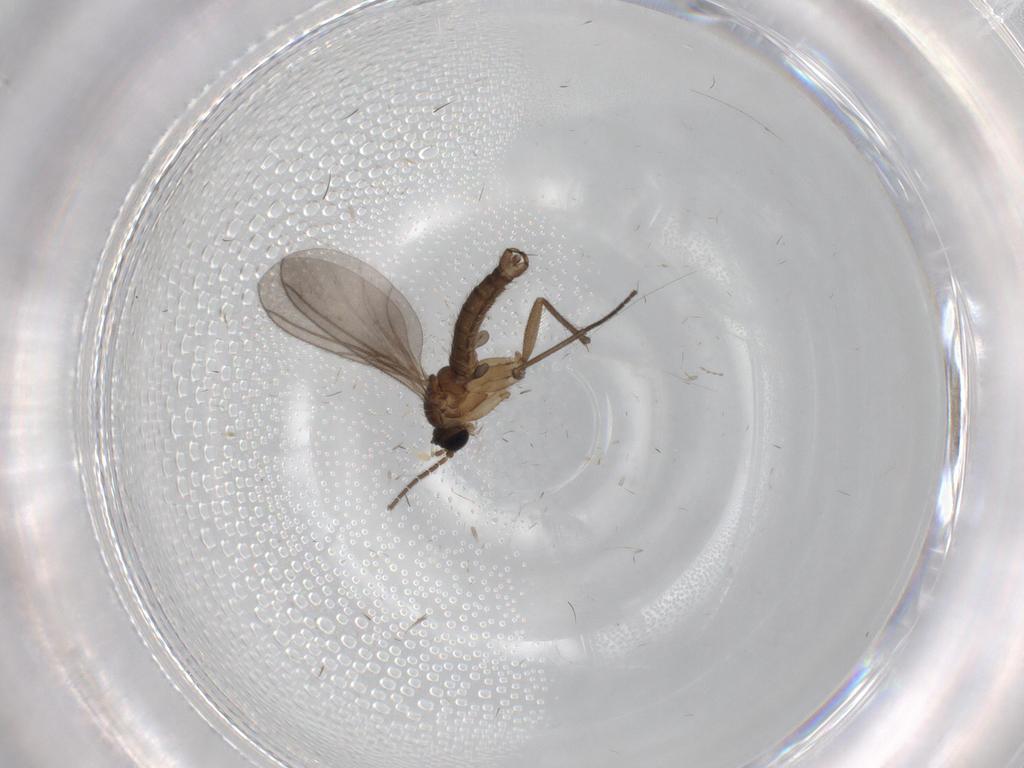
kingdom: Animalia
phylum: Arthropoda
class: Insecta
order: Diptera
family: Sciaridae
